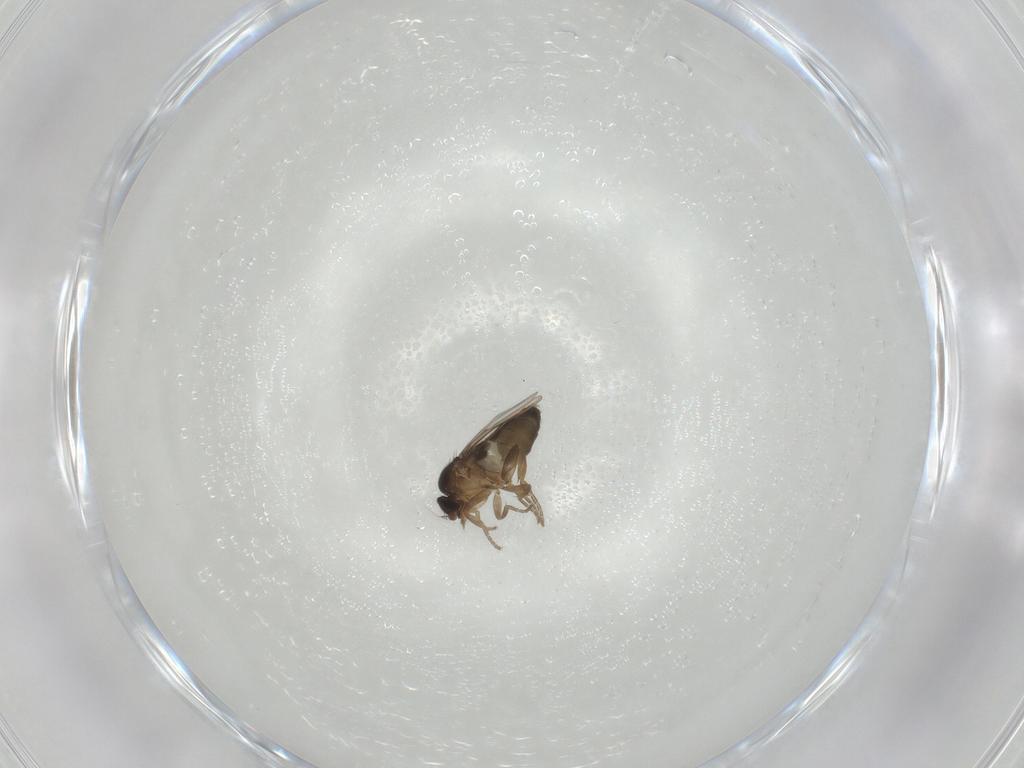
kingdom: Animalia
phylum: Arthropoda
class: Insecta
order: Diptera
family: Phoridae
